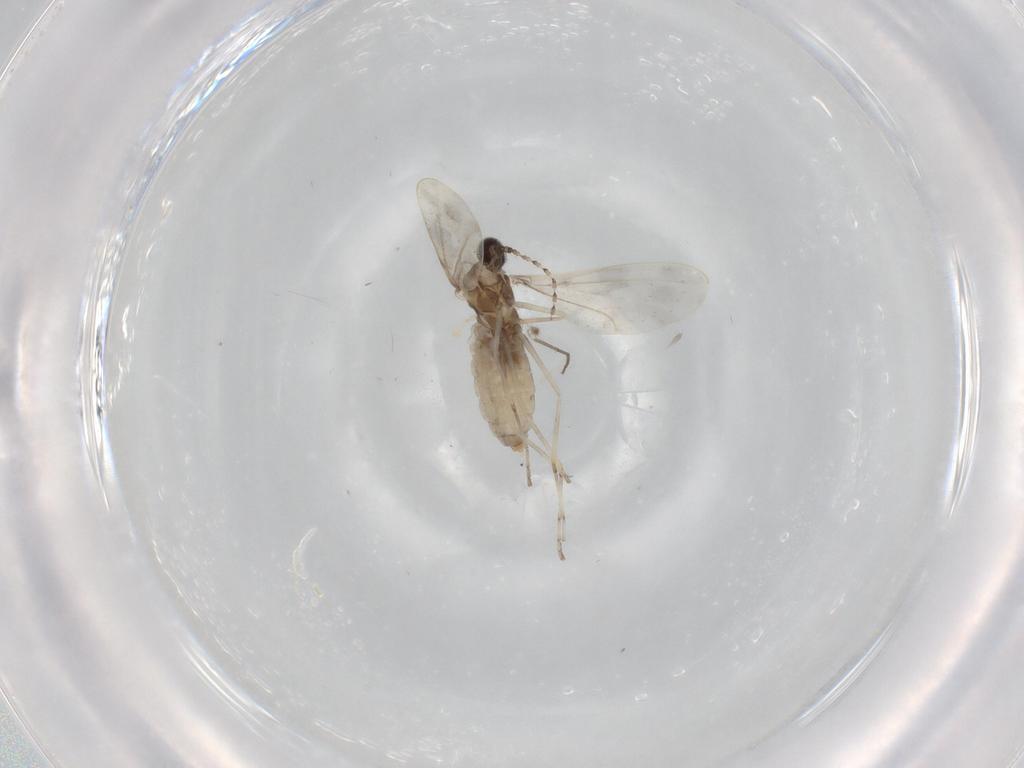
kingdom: Animalia
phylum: Arthropoda
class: Insecta
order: Diptera
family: Cecidomyiidae
